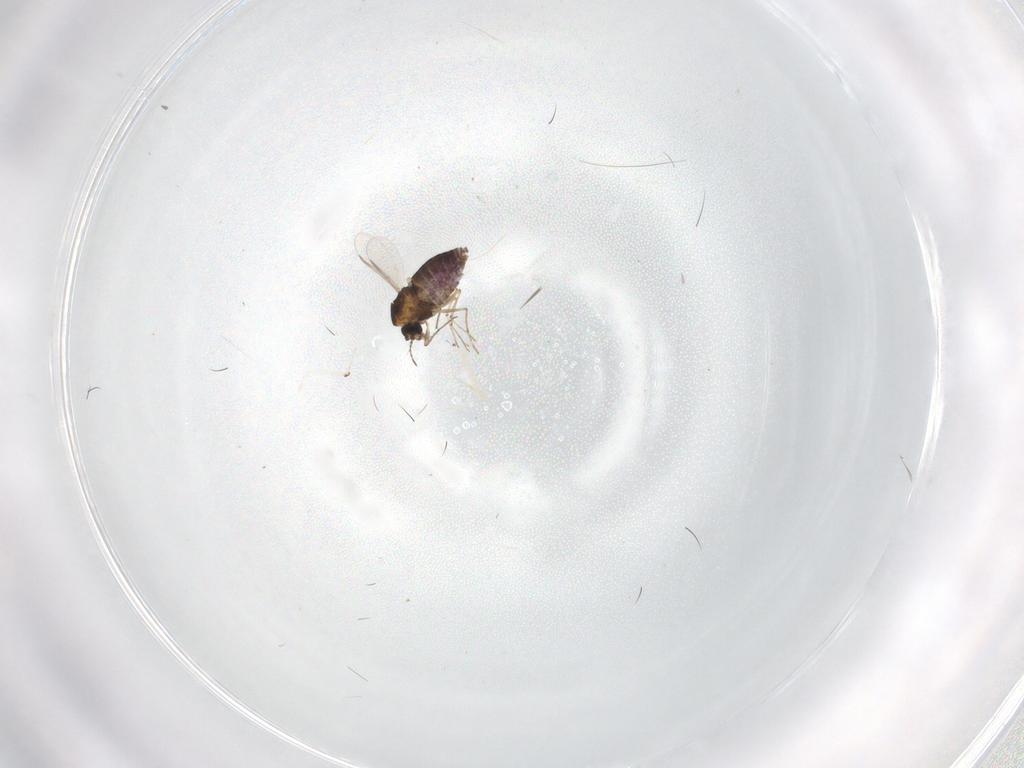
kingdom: Animalia
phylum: Arthropoda
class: Insecta
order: Diptera
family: Chironomidae
